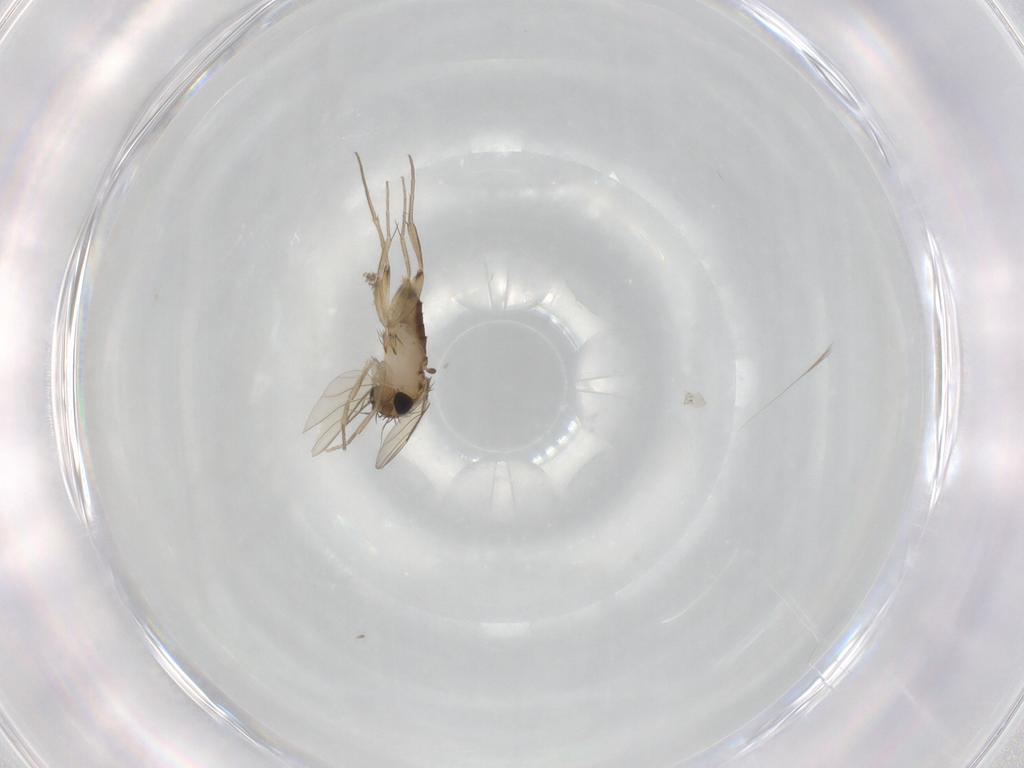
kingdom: Animalia
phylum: Arthropoda
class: Insecta
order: Diptera
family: Phoridae
